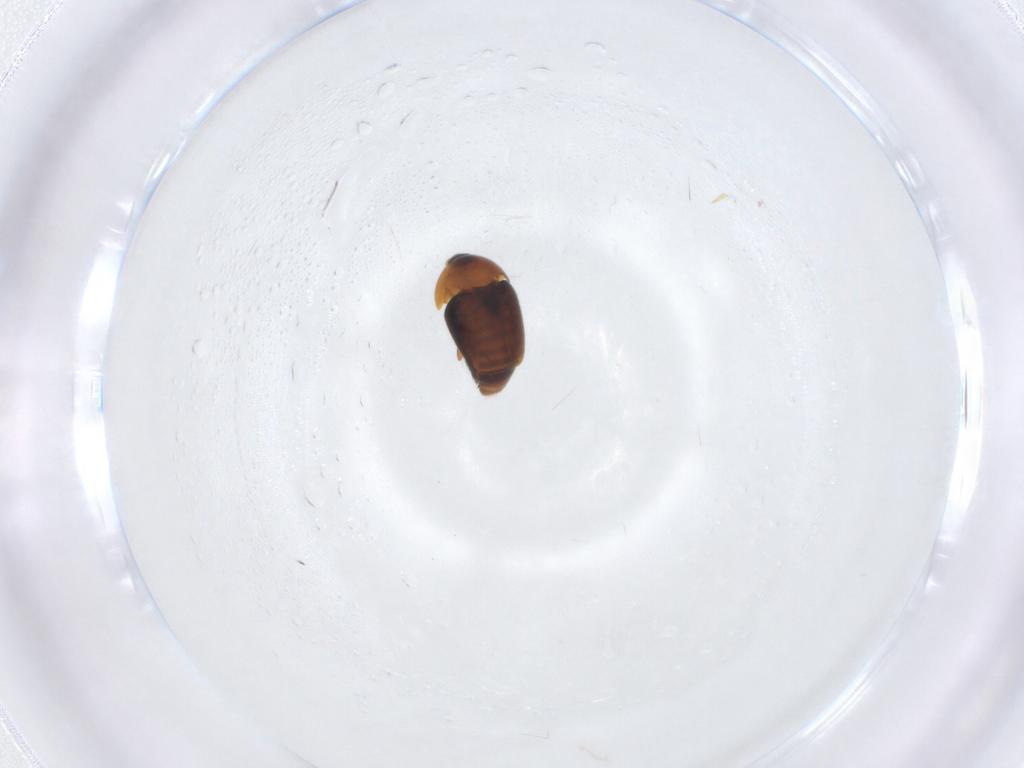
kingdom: Animalia
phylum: Arthropoda
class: Insecta
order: Coleoptera
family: Corylophidae
